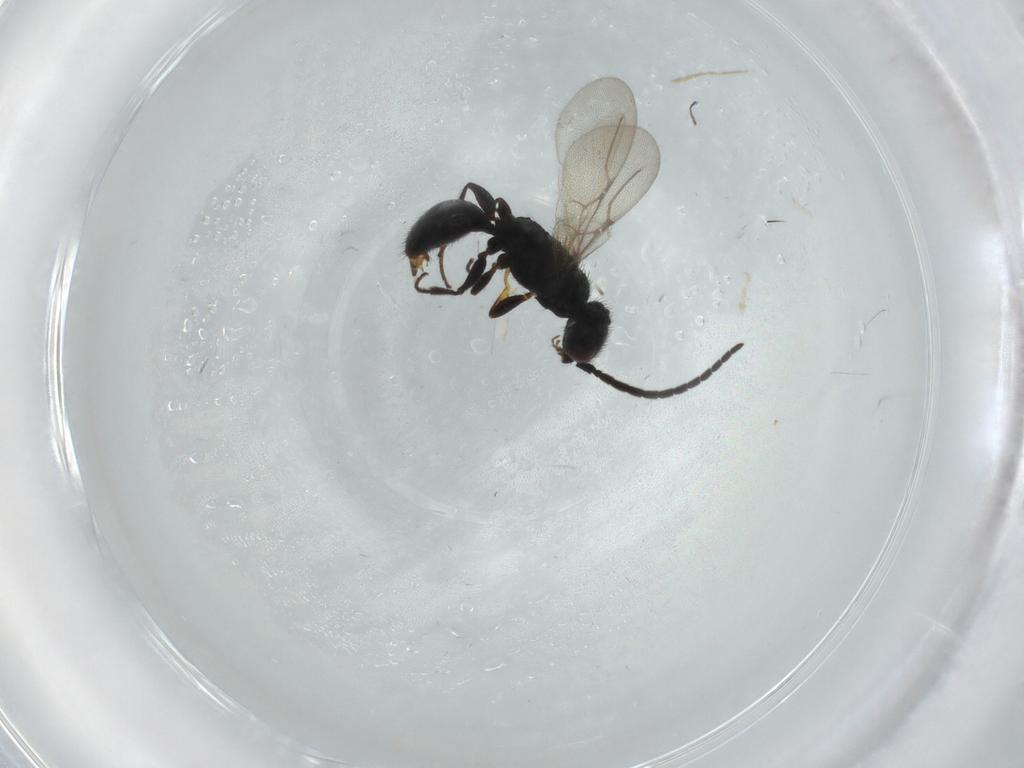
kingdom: Animalia
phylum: Arthropoda
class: Insecta
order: Hymenoptera
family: Bethylidae
